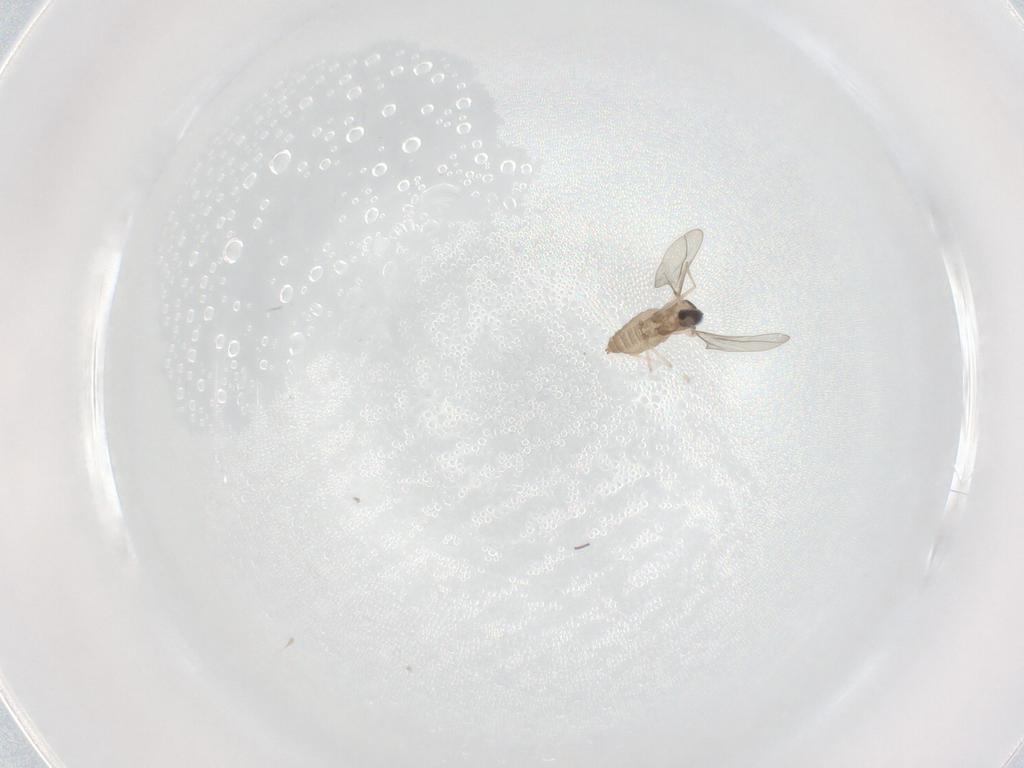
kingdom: Animalia
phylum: Arthropoda
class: Insecta
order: Diptera
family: Cecidomyiidae
